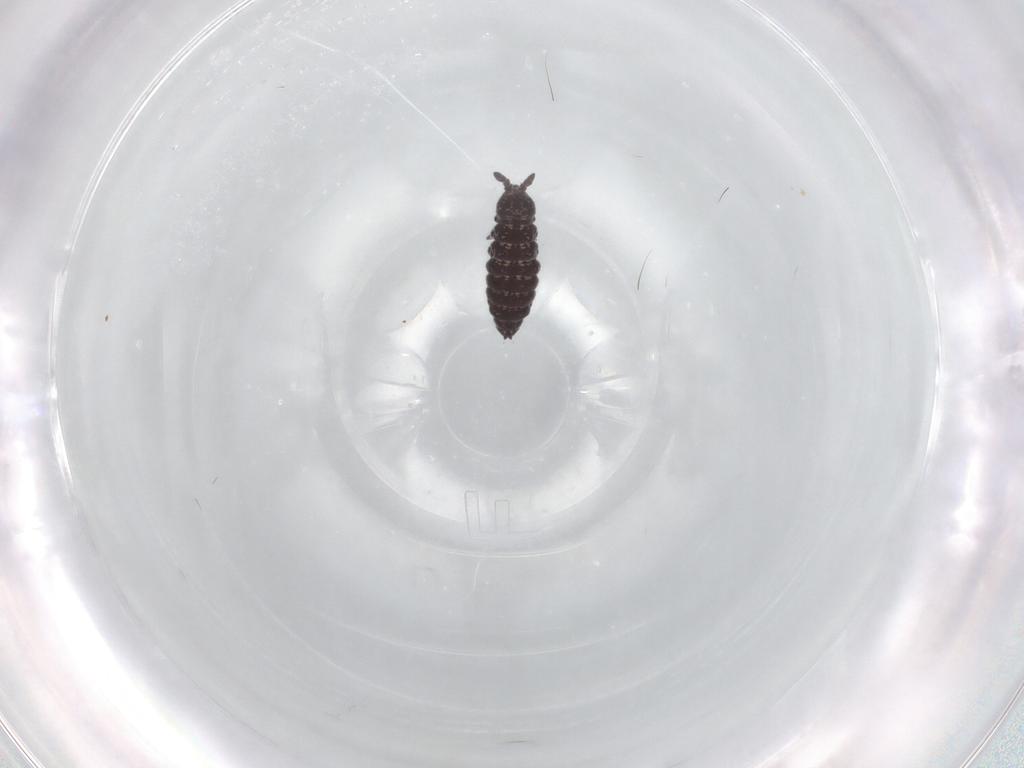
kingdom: Animalia
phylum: Arthropoda
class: Collembola
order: Poduromorpha
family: Hypogastruridae
